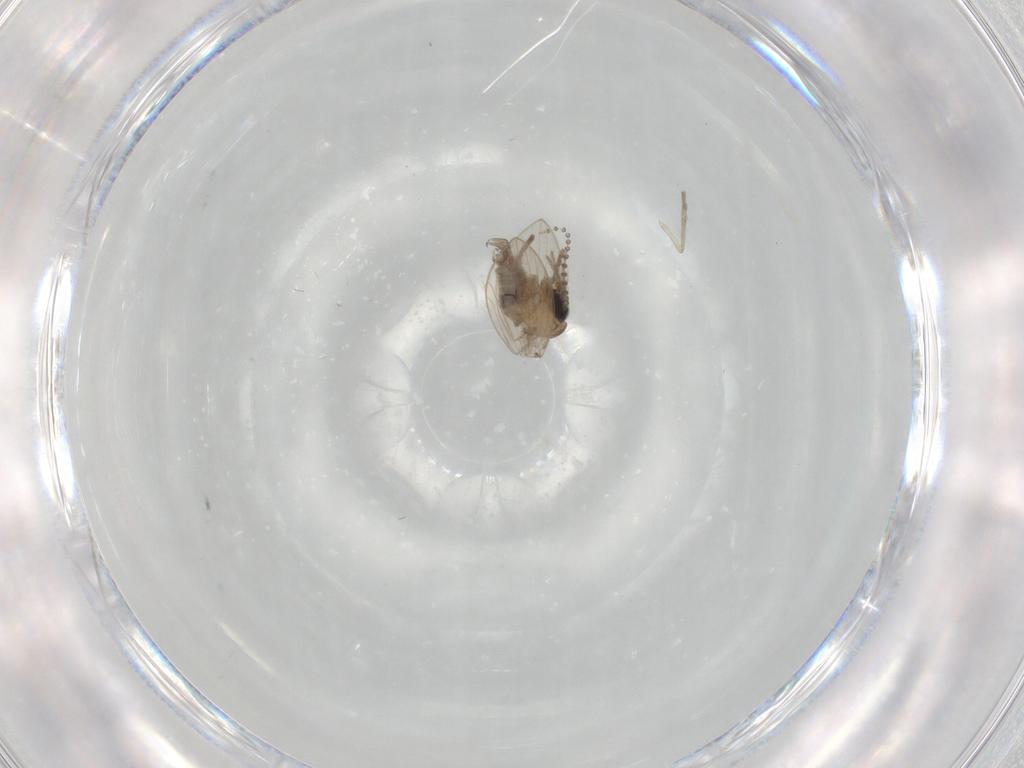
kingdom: Animalia
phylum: Arthropoda
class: Insecta
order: Diptera
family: Psychodidae
